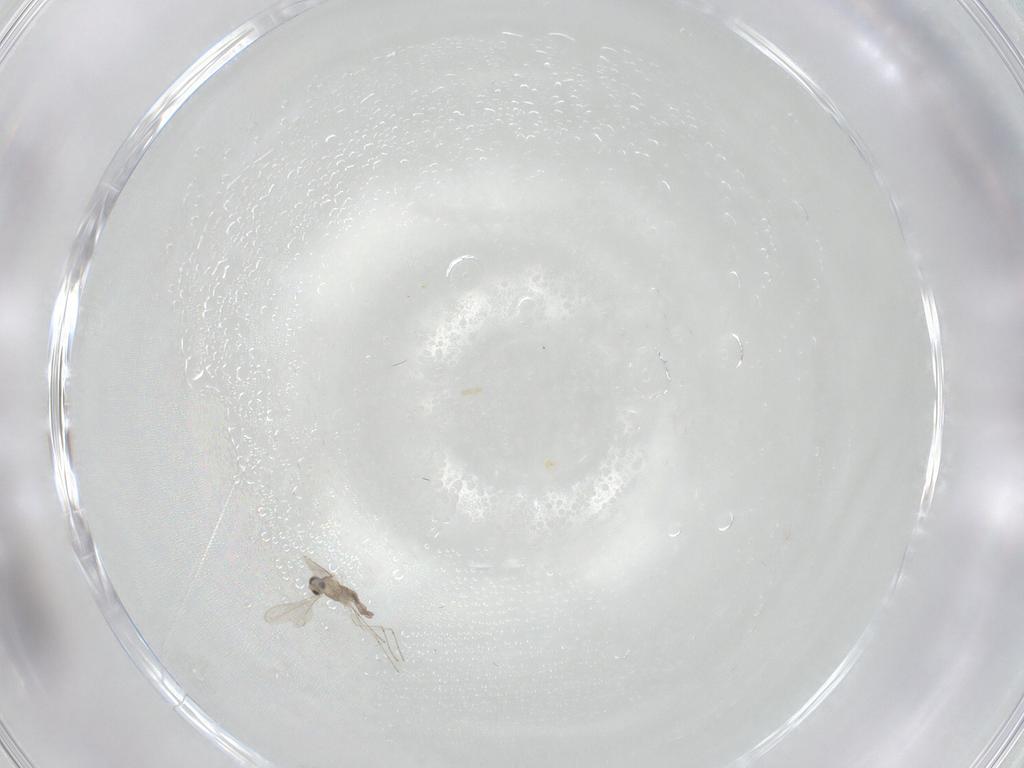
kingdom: Animalia
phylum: Arthropoda
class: Insecta
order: Diptera
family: Cecidomyiidae
